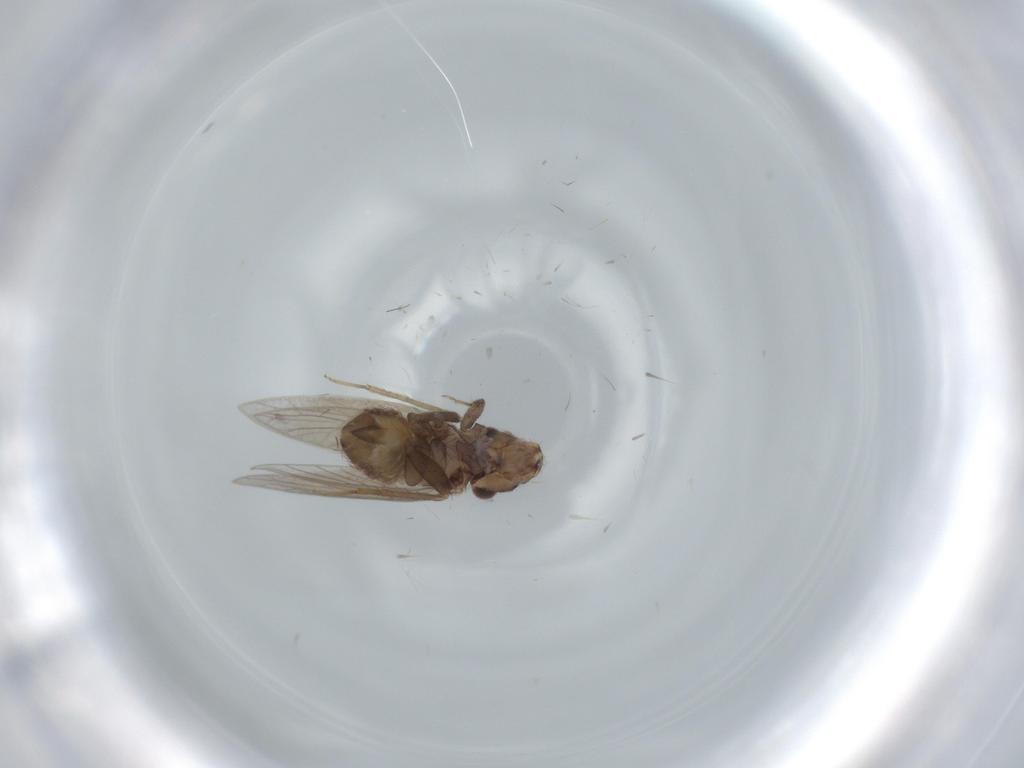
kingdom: Animalia
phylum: Arthropoda
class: Insecta
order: Psocodea
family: Lepidopsocidae
